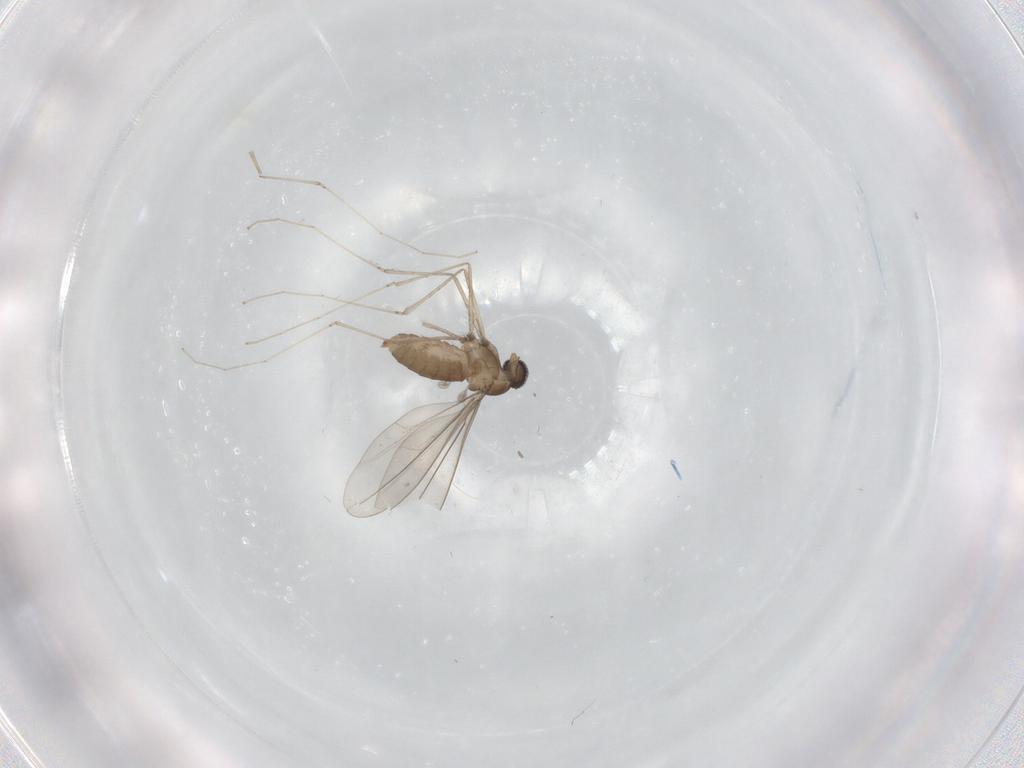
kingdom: Animalia
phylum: Arthropoda
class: Insecta
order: Diptera
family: Cecidomyiidae
